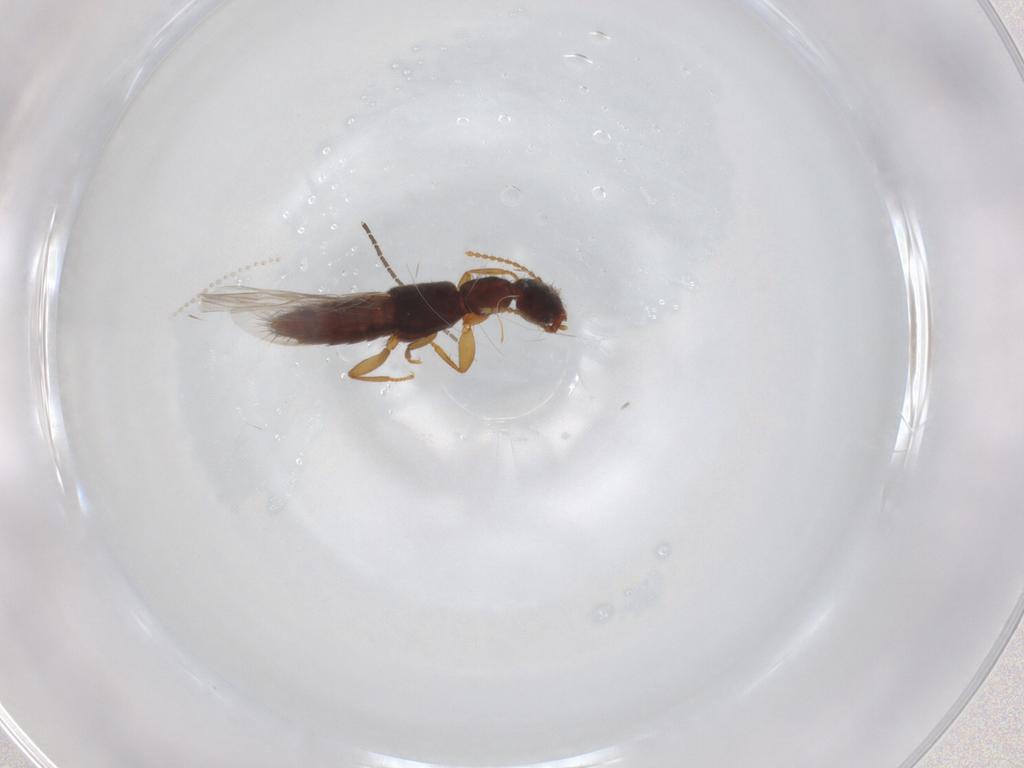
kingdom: Animalia
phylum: Arthropoda
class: Insecta
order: Coleoptera
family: Staphylinidae
